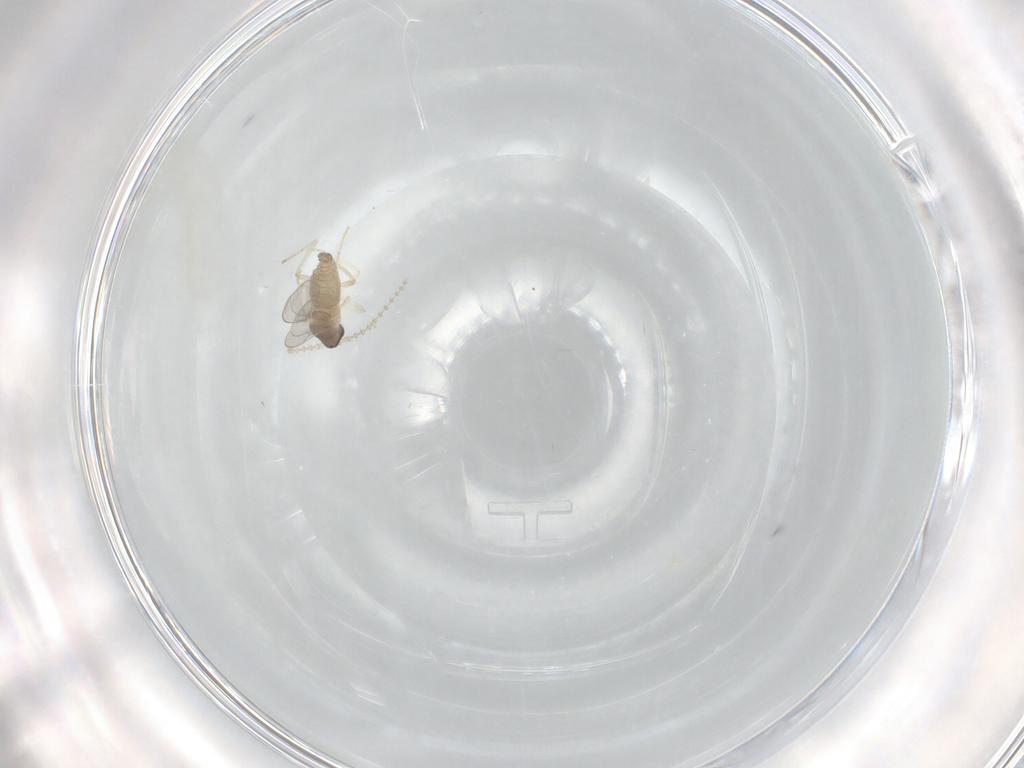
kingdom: Animalia
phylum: Arthropoda
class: Insecta
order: Diptera
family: Cecidomyiidae
